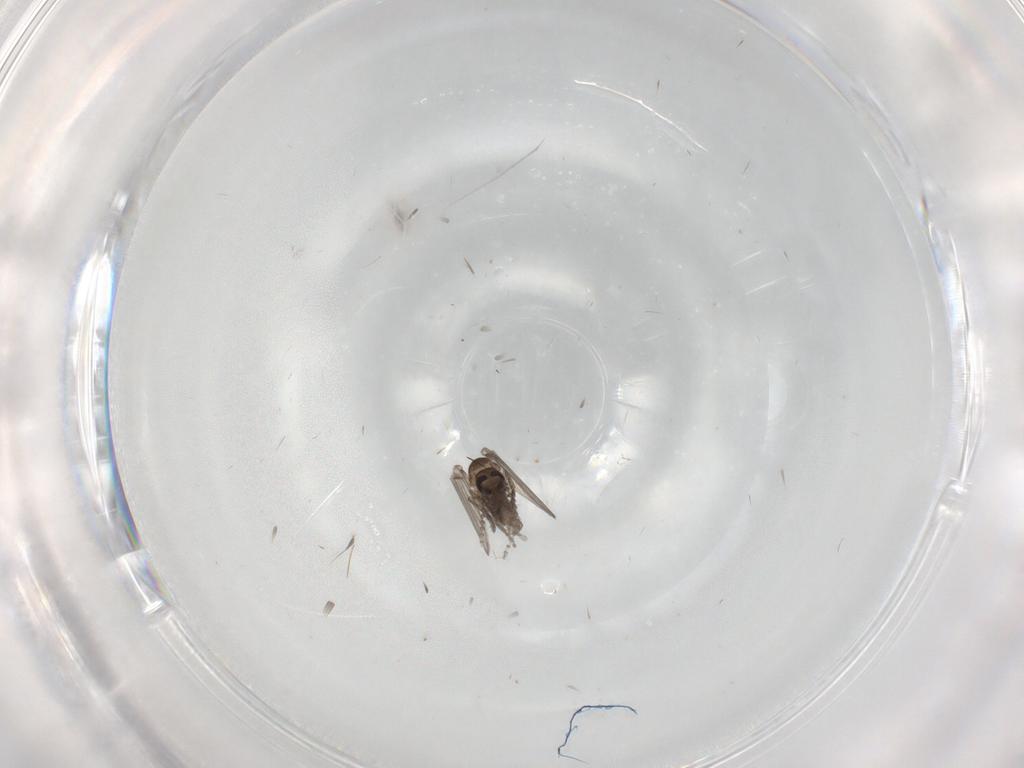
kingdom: Animalia
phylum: Arthropoda
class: Insecta
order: Diptera
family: Psychodidae
